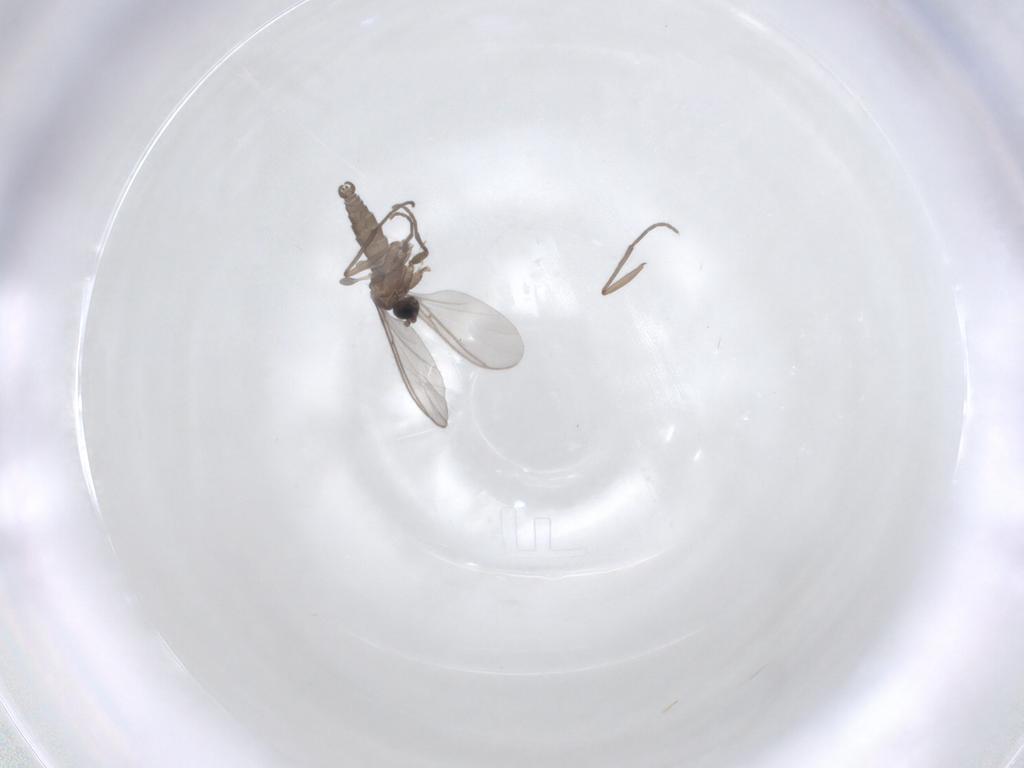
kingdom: Animalia
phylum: Arthropoda
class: Insecta
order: Diptera
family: Sciaridae
